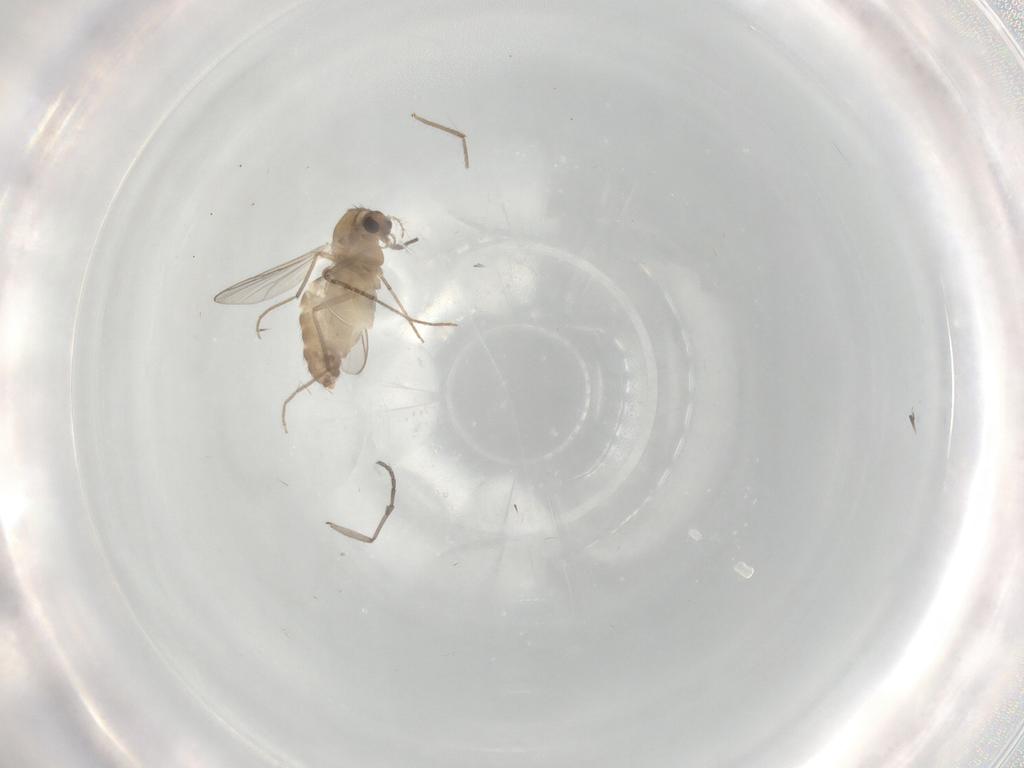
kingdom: Animalia
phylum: Arthropoda
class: Insecta
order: Diptera
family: Chironomidae
